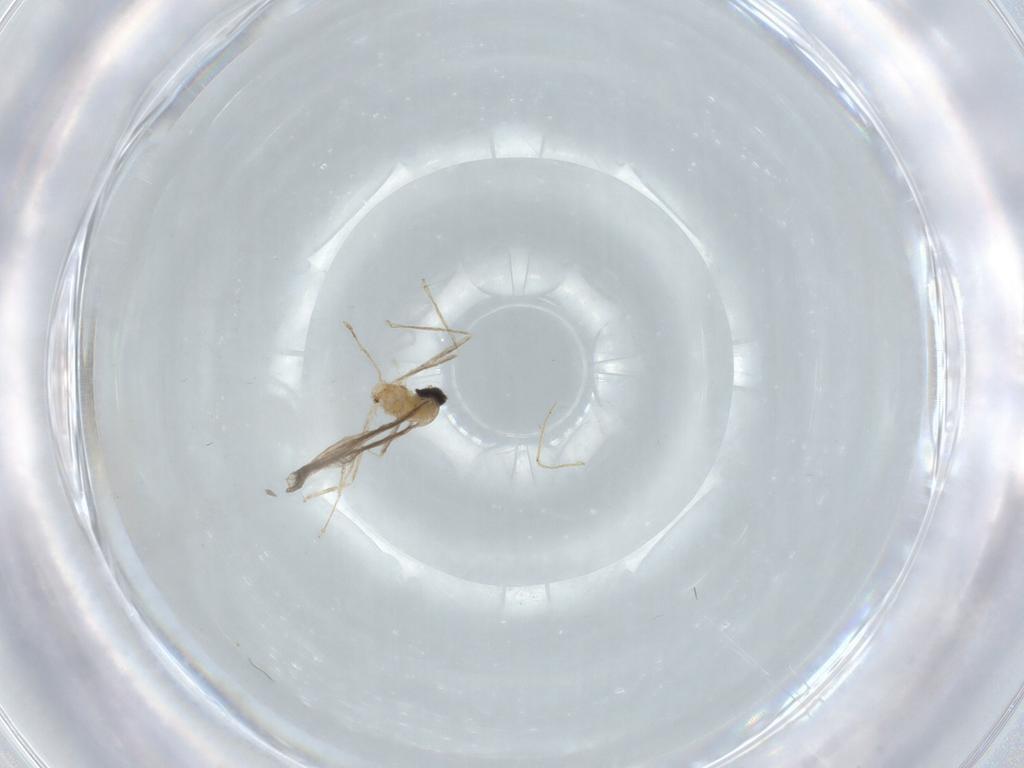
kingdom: Animalia
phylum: Arthropoda
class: Insecta
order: Diptera
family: Cecidomyiidae
